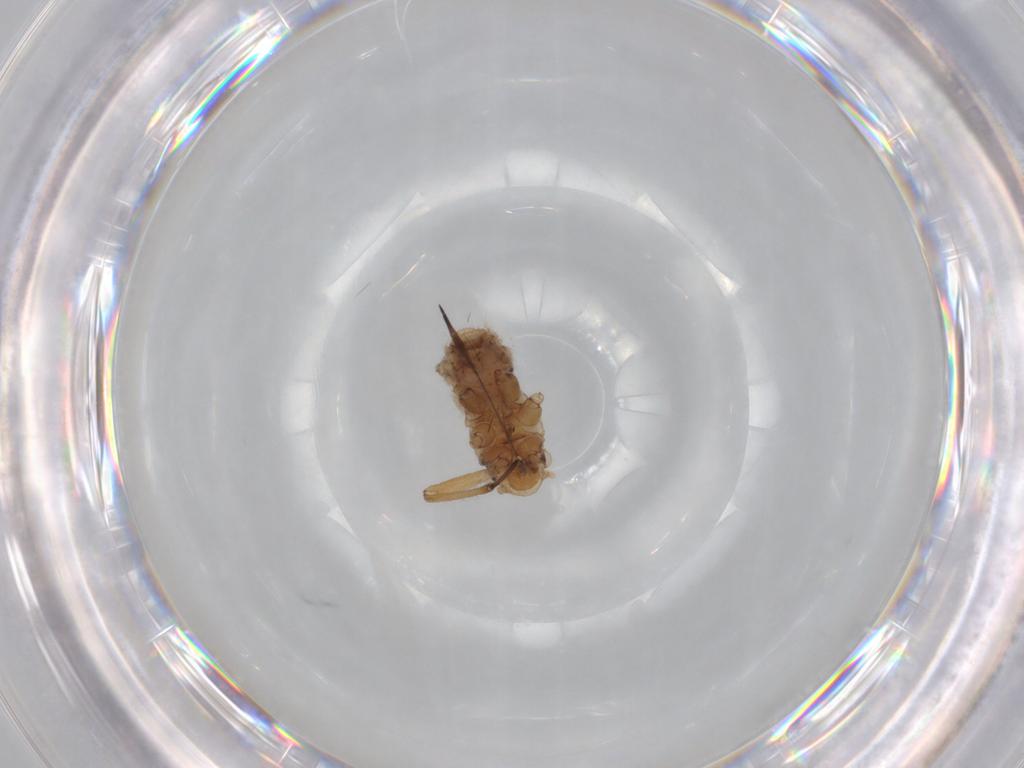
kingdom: Animalia
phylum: Arthropoda
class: Insecta
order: Hemiptera
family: Aphididae
